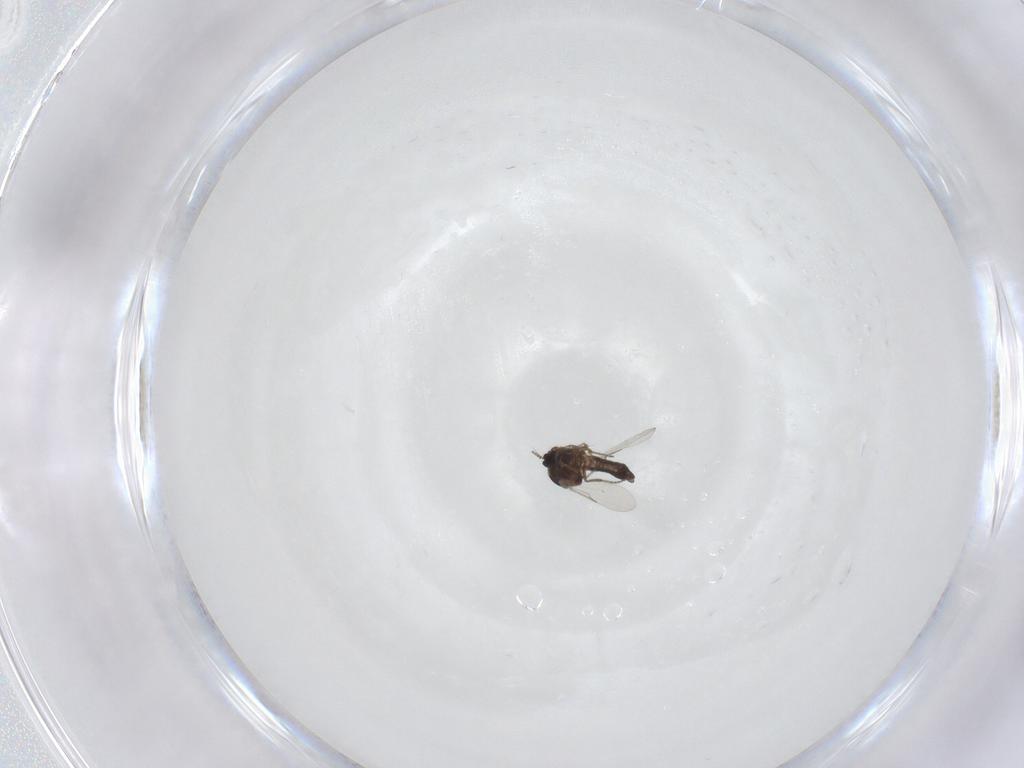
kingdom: Animalia
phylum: Arthropoda
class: Insecta
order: Diptera
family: Ceratopogonidae
